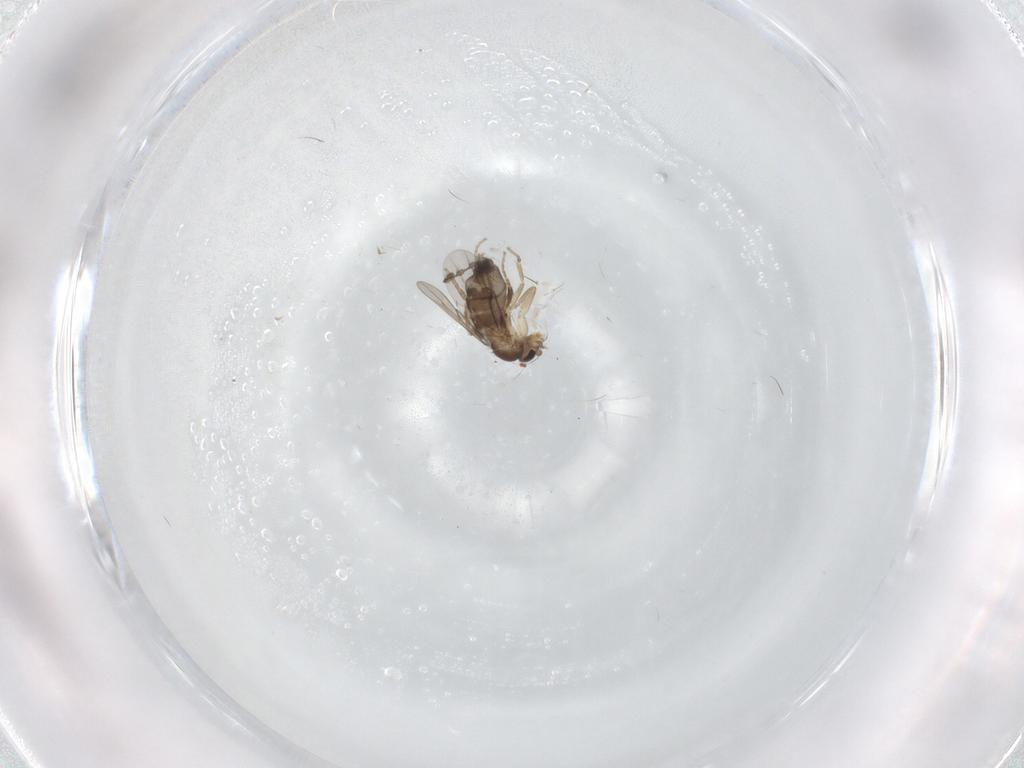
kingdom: Animalia
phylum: Arthropoda
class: Insecta
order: Diptera
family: Phoridae
